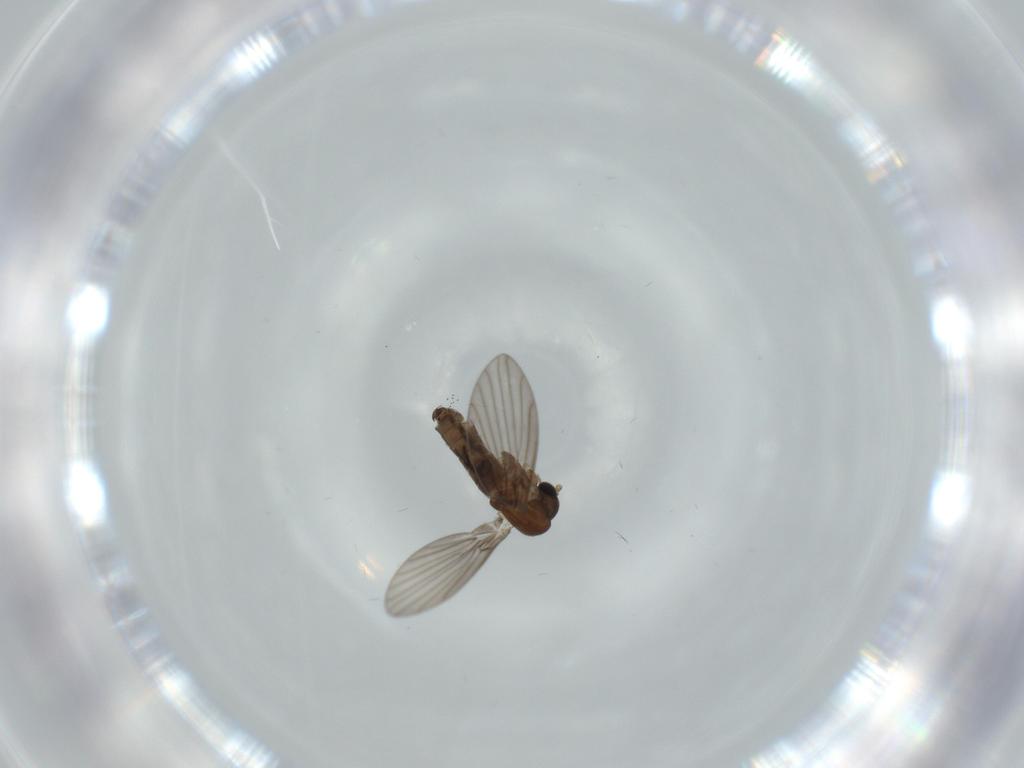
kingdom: Animalia
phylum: Arthropoda
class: Insecta
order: Diptera
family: Psychodidae
